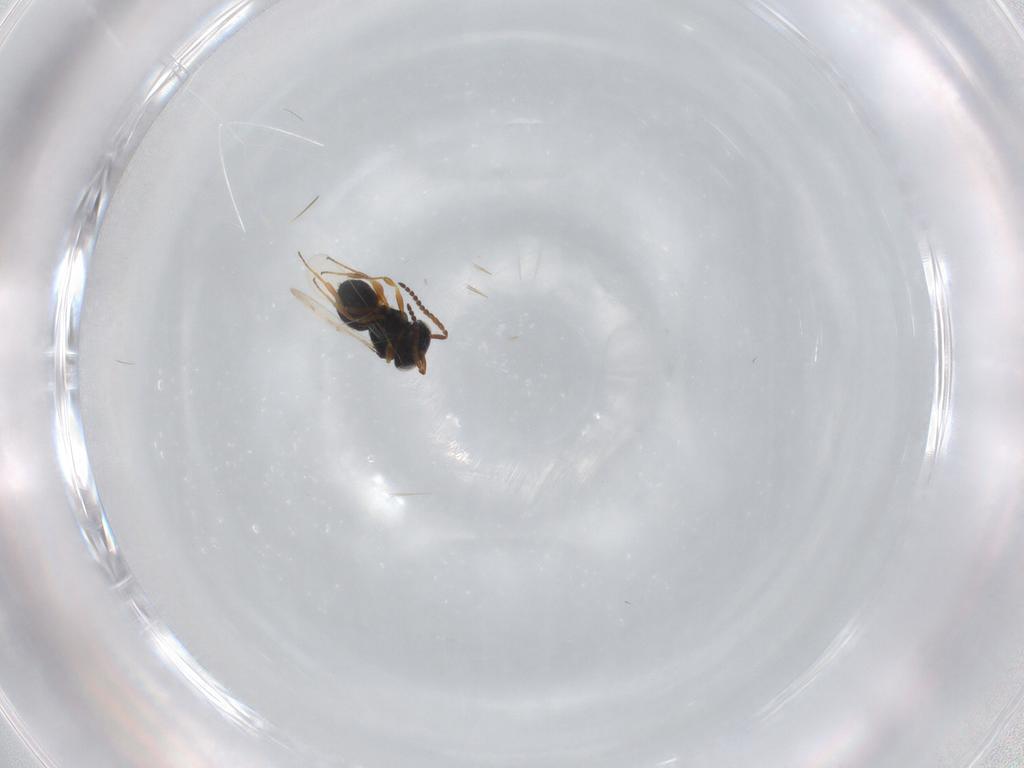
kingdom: Animalia
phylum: Arthropoda
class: Insecta
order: Hymenoptera
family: Scelionidae
